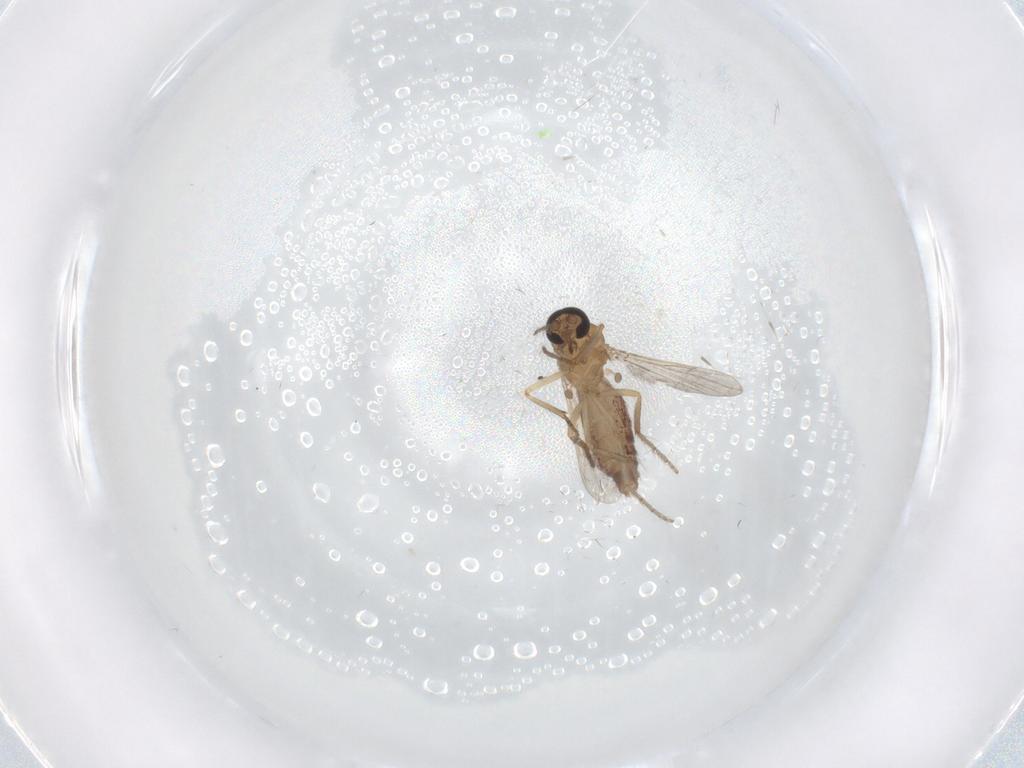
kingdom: Animalia
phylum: Arthropoda
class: Insecta
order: Diptera
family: Ceratopogonidae
